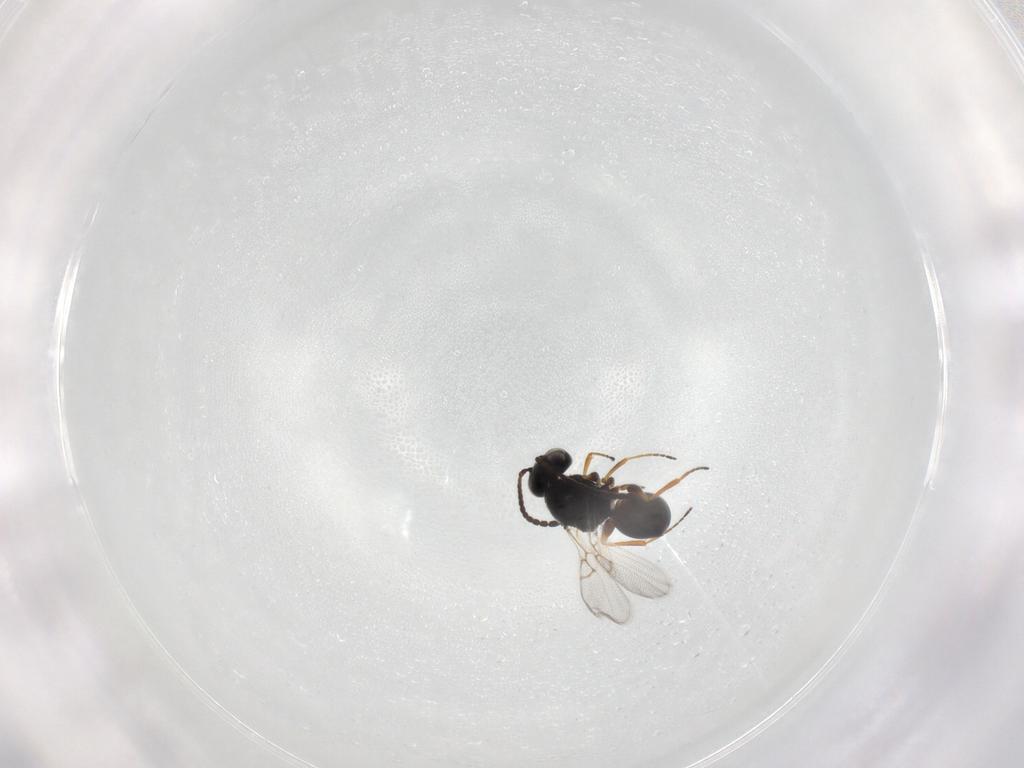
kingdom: Animalia
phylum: Arthropoda
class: Insecta
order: Hymenoptera
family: Figitidae
